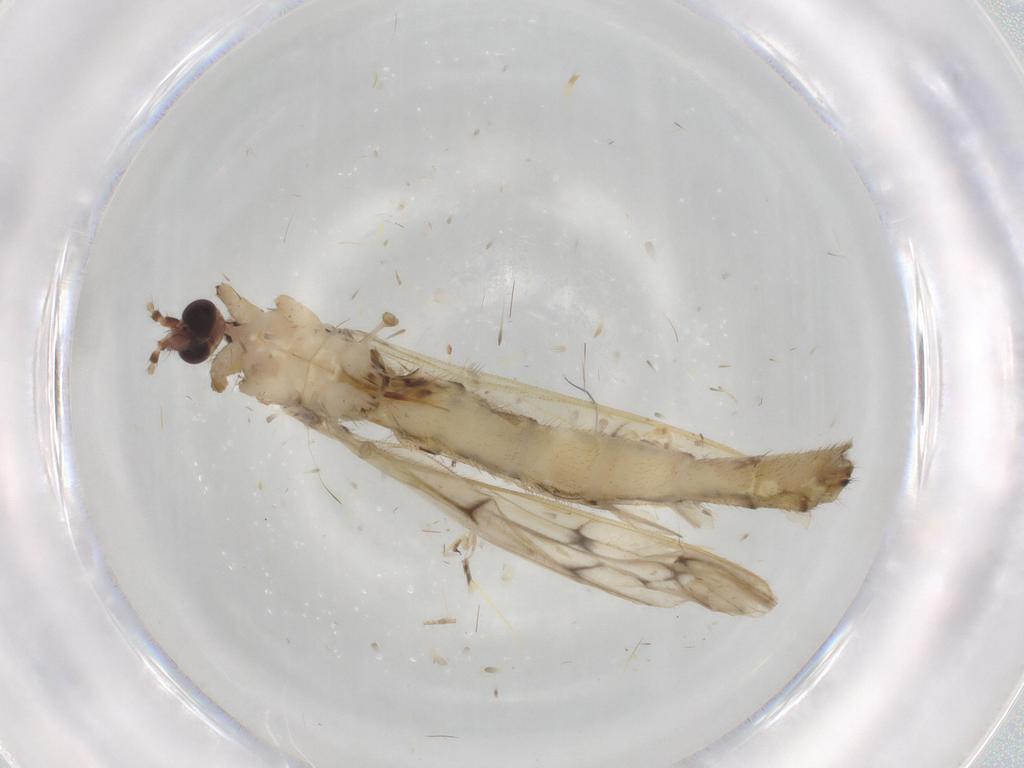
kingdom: Animalia
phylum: Arthropoda
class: Insecta
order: Diptera
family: Limoniidae
